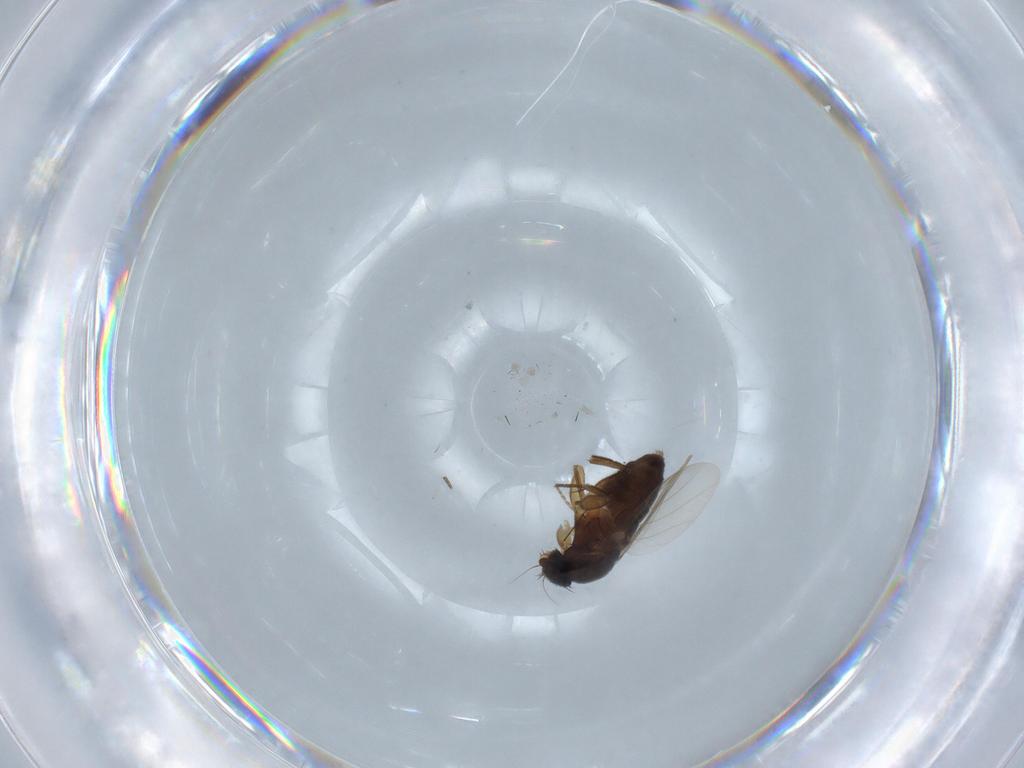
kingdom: Animalia
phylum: Arthropoda
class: Insecta
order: Diptera
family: Phoridae
